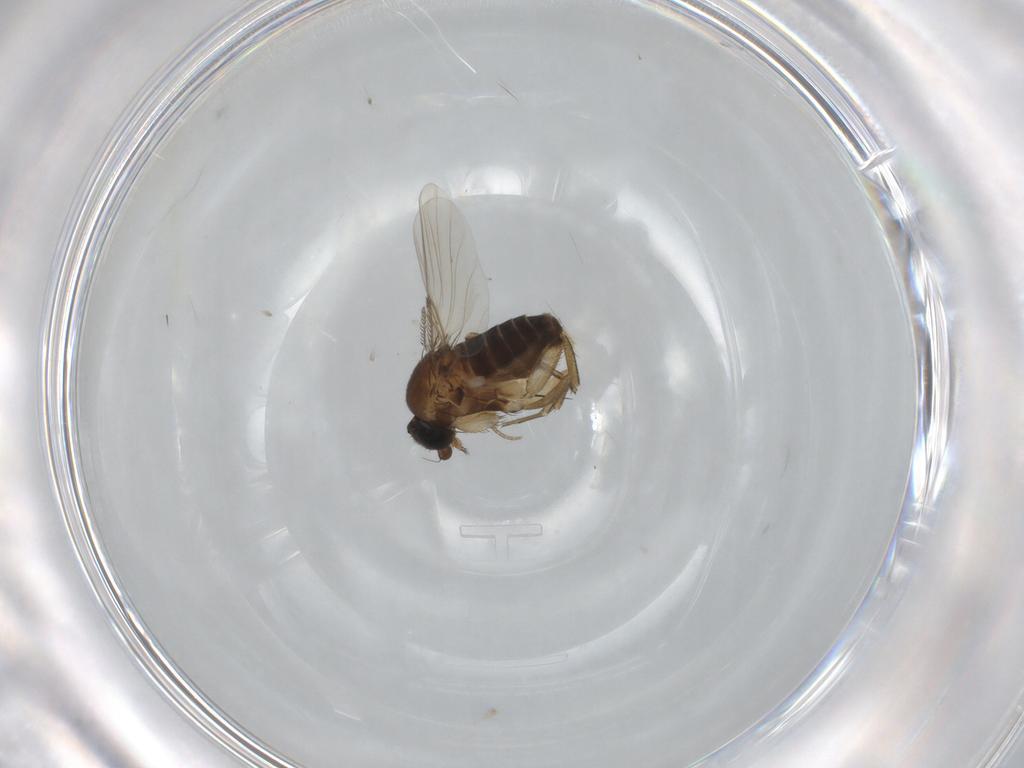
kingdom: Animalia
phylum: Arthropoda
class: Insecta
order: Diptera
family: Phoridae
